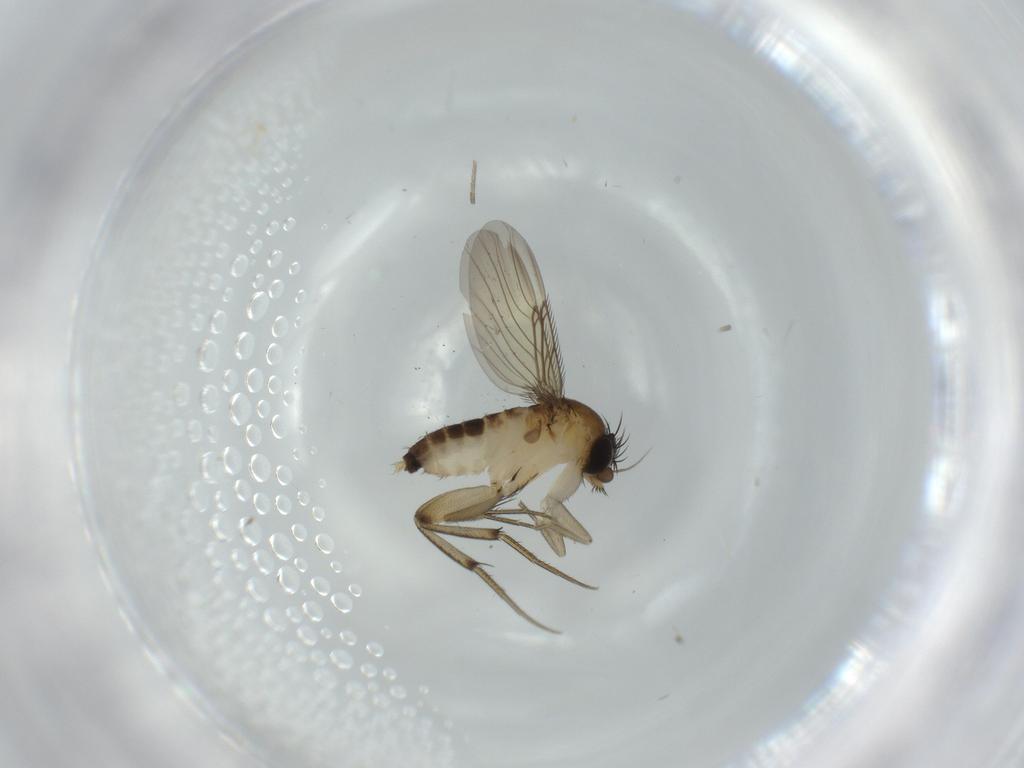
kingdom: Animalia
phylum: Arthropoda
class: Insecta
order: Diptera
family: Phoridae
